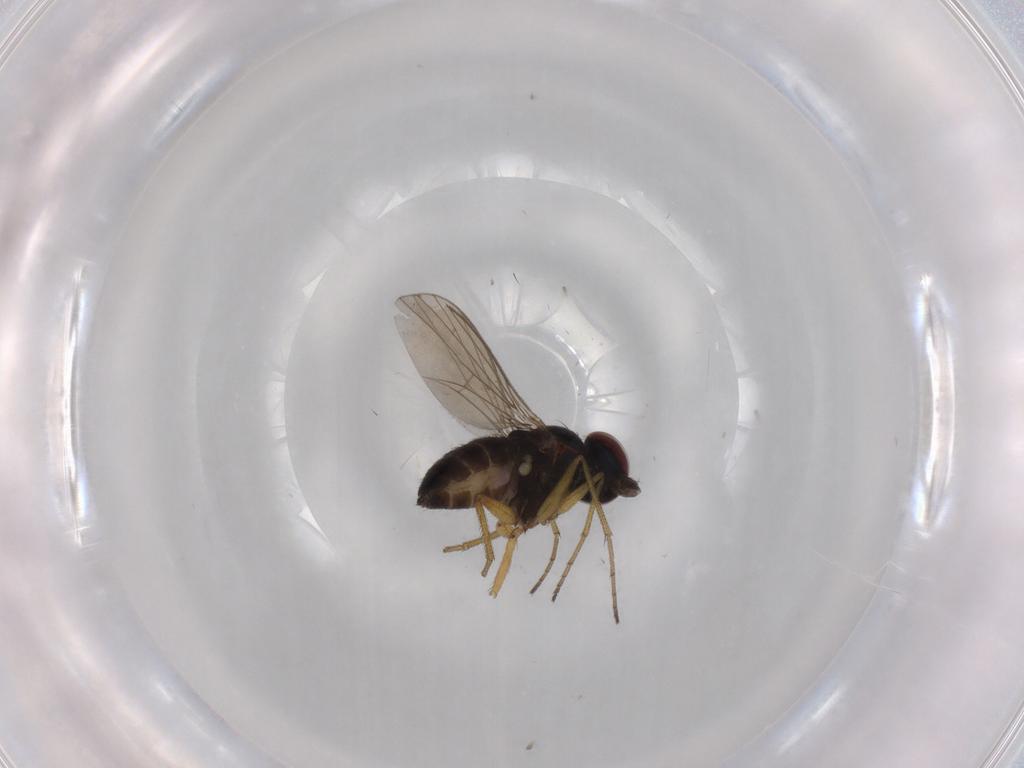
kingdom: Animalia
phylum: Arthropoda
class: Insecta
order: Diptera
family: Dolichopodidae
